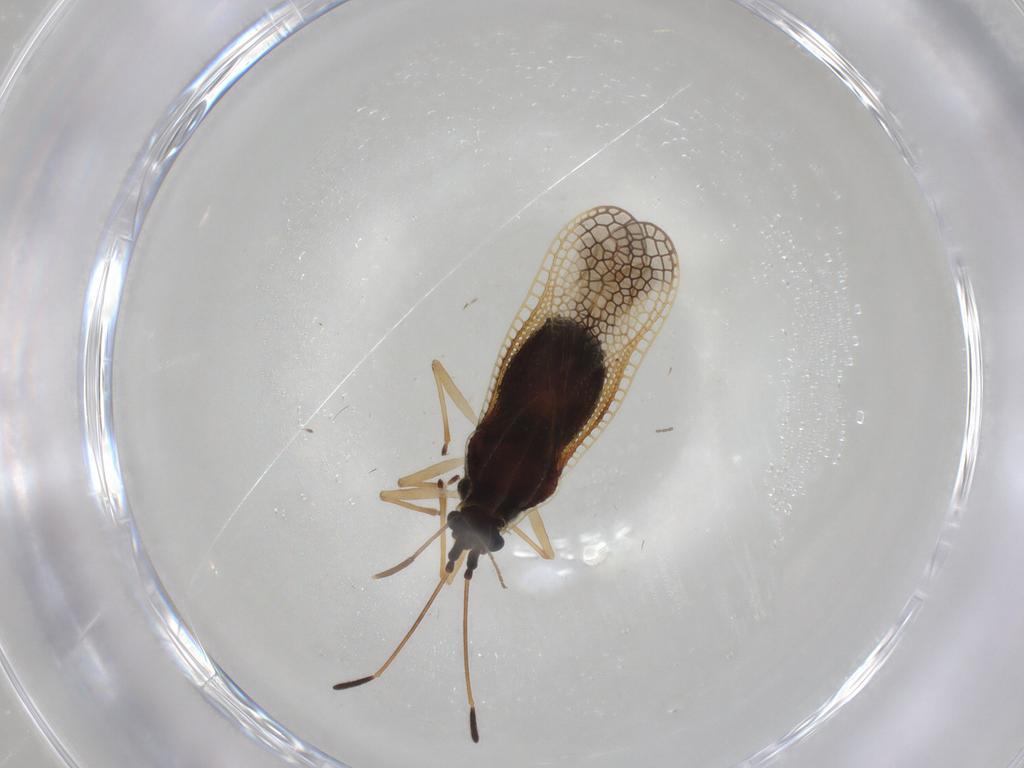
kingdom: Animalia
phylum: Arthropoda
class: Insecta
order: Hemiptera
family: Tingidae
